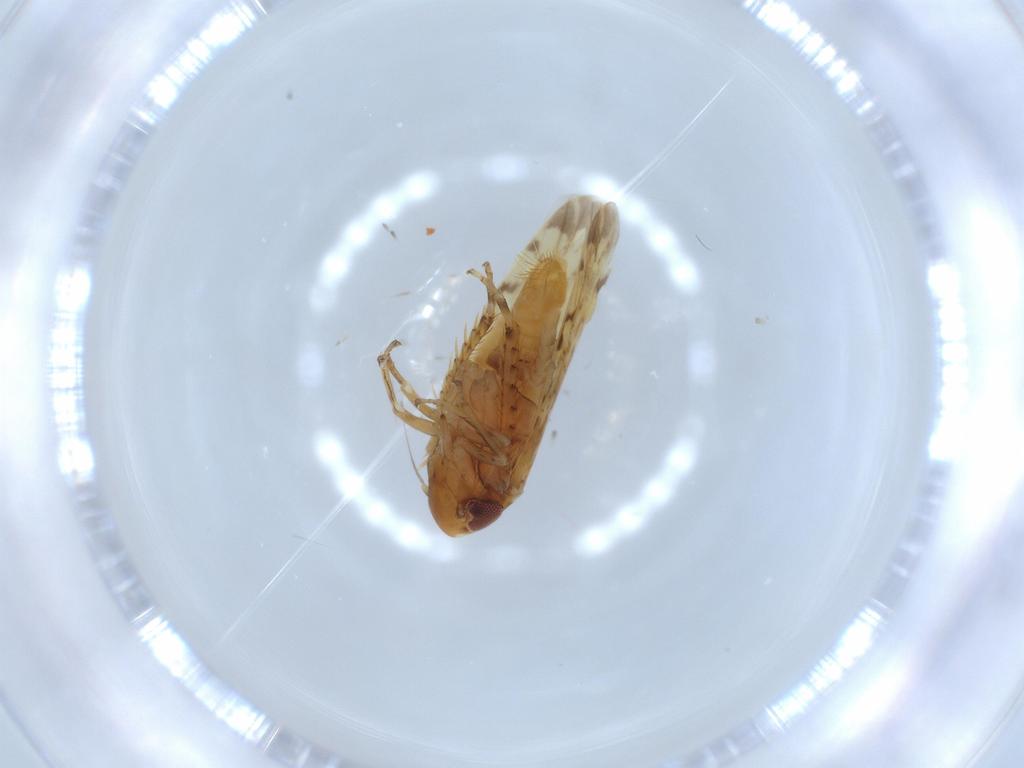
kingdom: Animalia
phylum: Arthropoda
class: Insecta
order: Hemiptera
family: Cicadellidae
